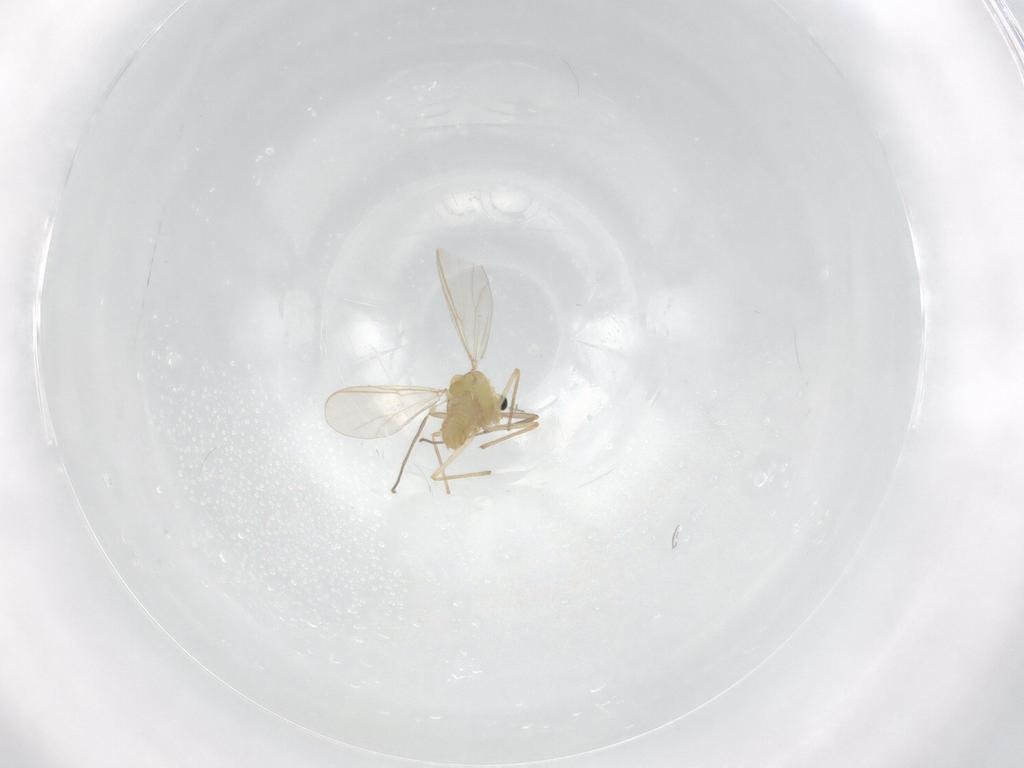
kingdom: Animalia
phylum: Arthropoda
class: Insecta
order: Diptera
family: Chironomidae
